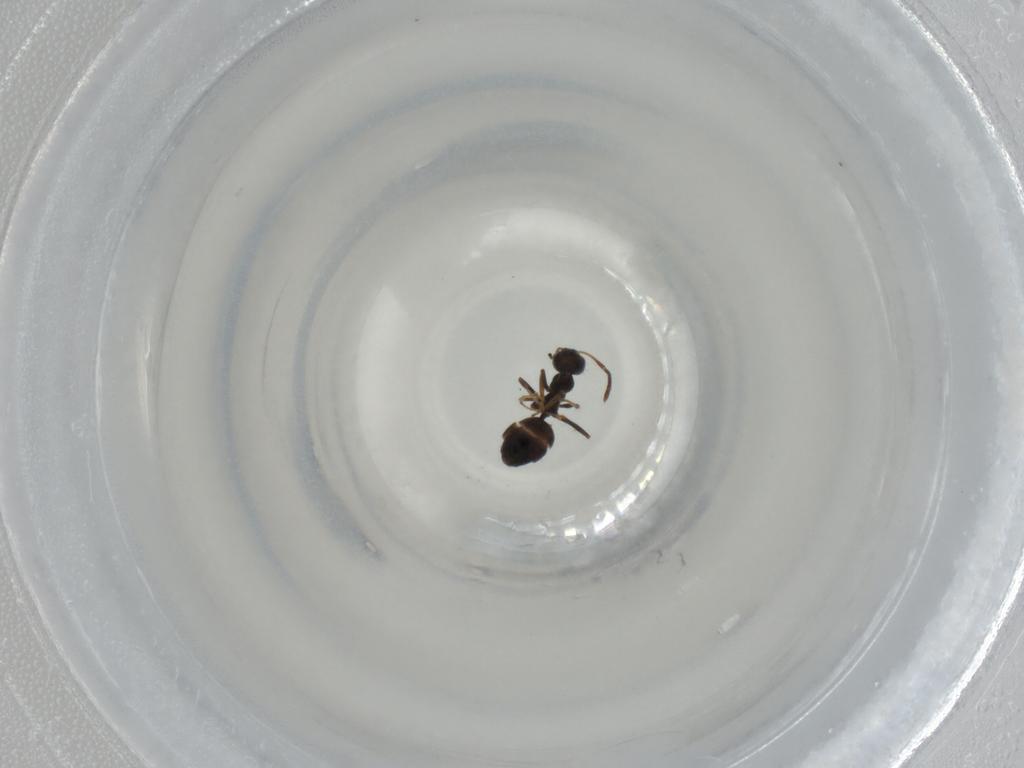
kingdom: Animalia
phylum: Arthropoda
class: Insecta
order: Hymenoptera
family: Formicidae
